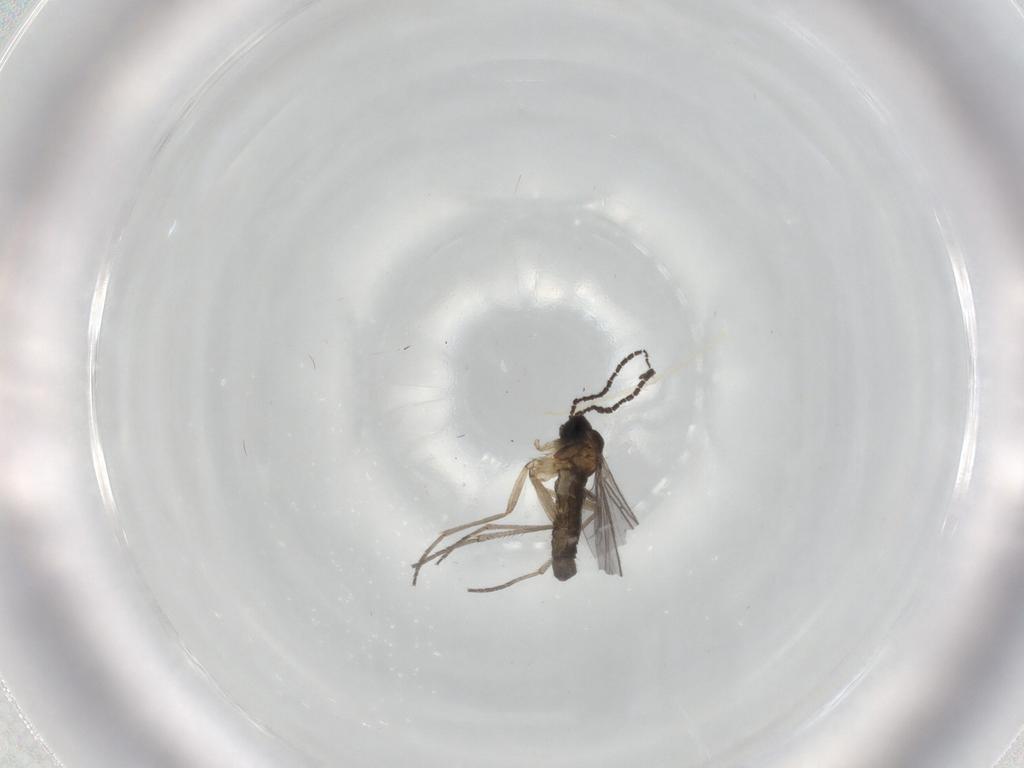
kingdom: Animalia
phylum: Arthropoda
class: Insecta
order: Diptera
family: Sciaridae
